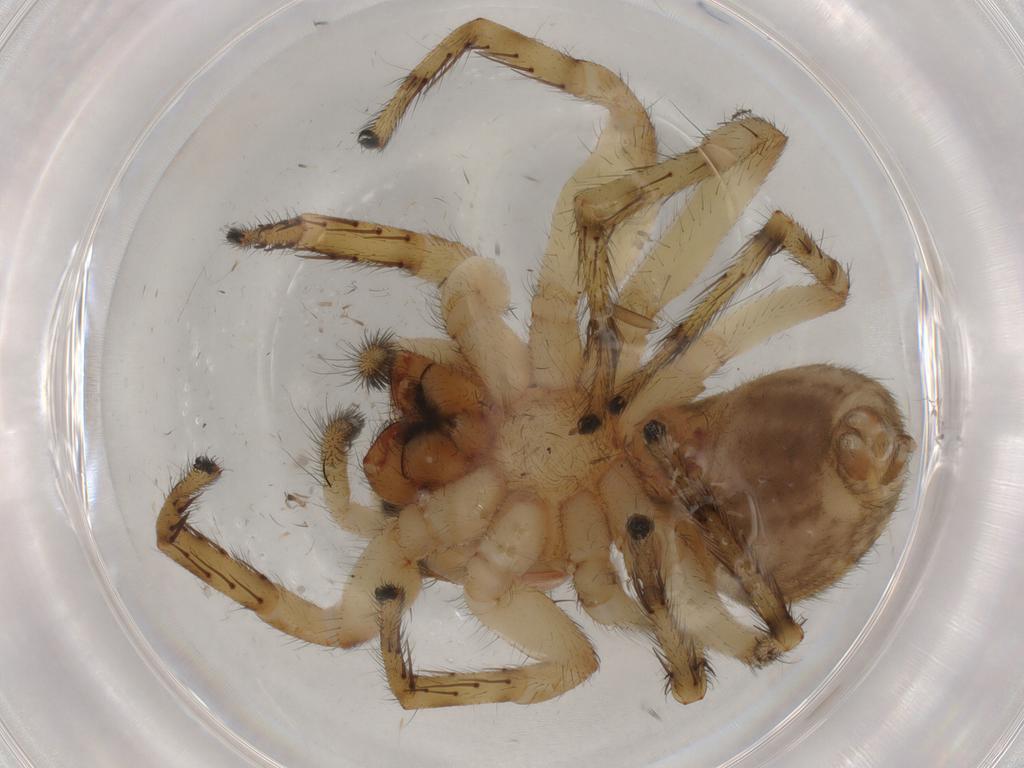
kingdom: Animalia
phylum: Arthropoda
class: Arachnida
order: Araneae
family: Salticidae
